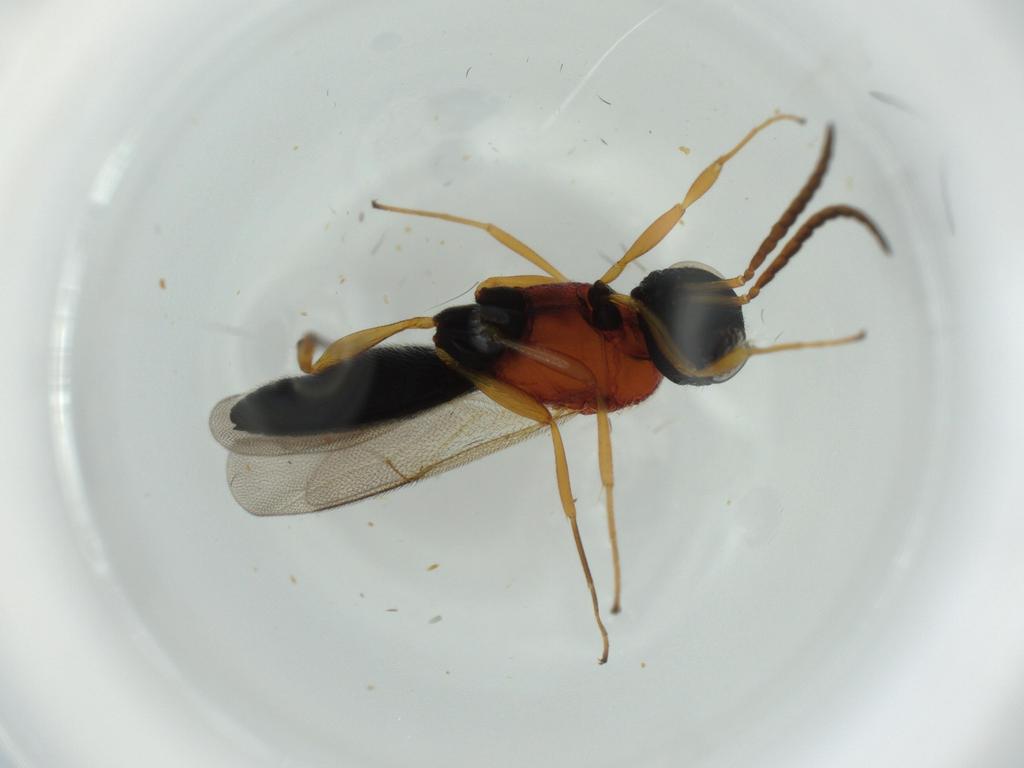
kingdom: Animalia
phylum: Arthropoda
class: Insecta
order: Hymenoptera
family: Scelionidae
